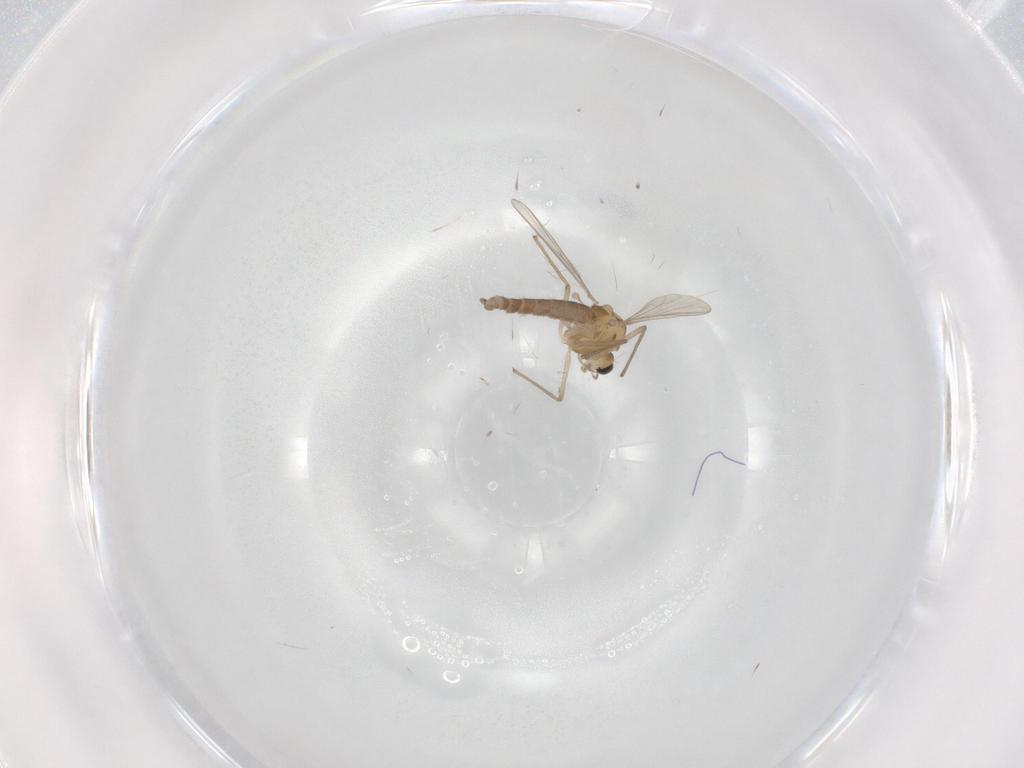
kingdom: Animalia
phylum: Arthropoda
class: Insecta
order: Diptera
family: Chironomidae
